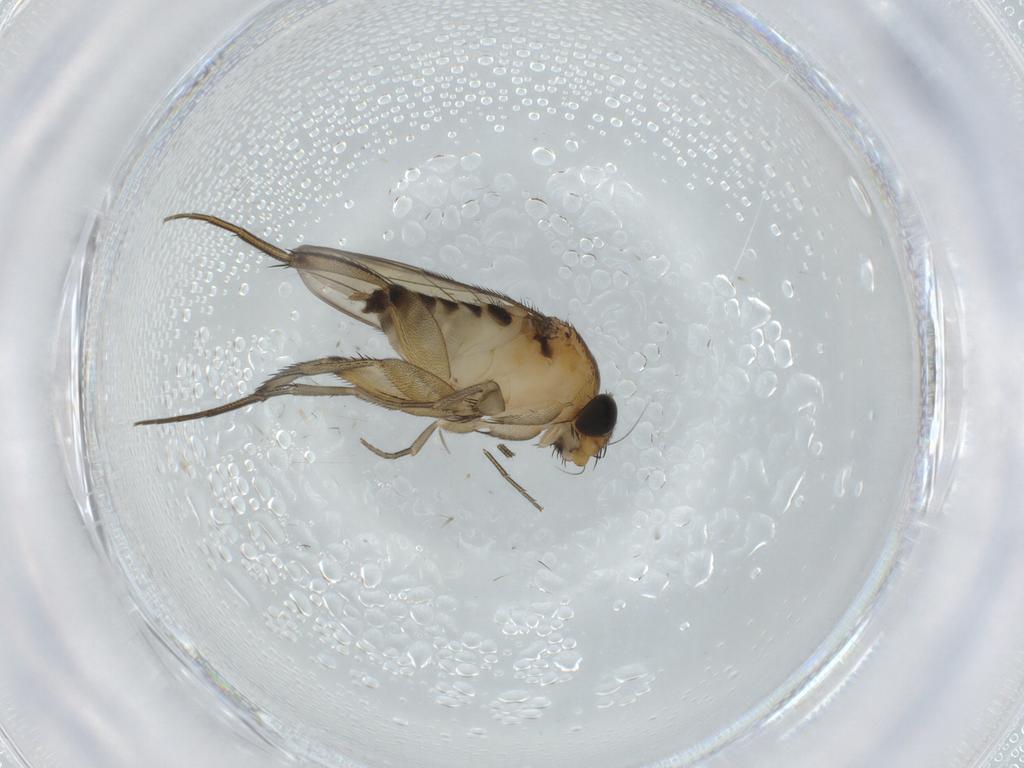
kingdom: Animalia
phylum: Arthropoda
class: Insecta
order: Diptera
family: Phoridae
